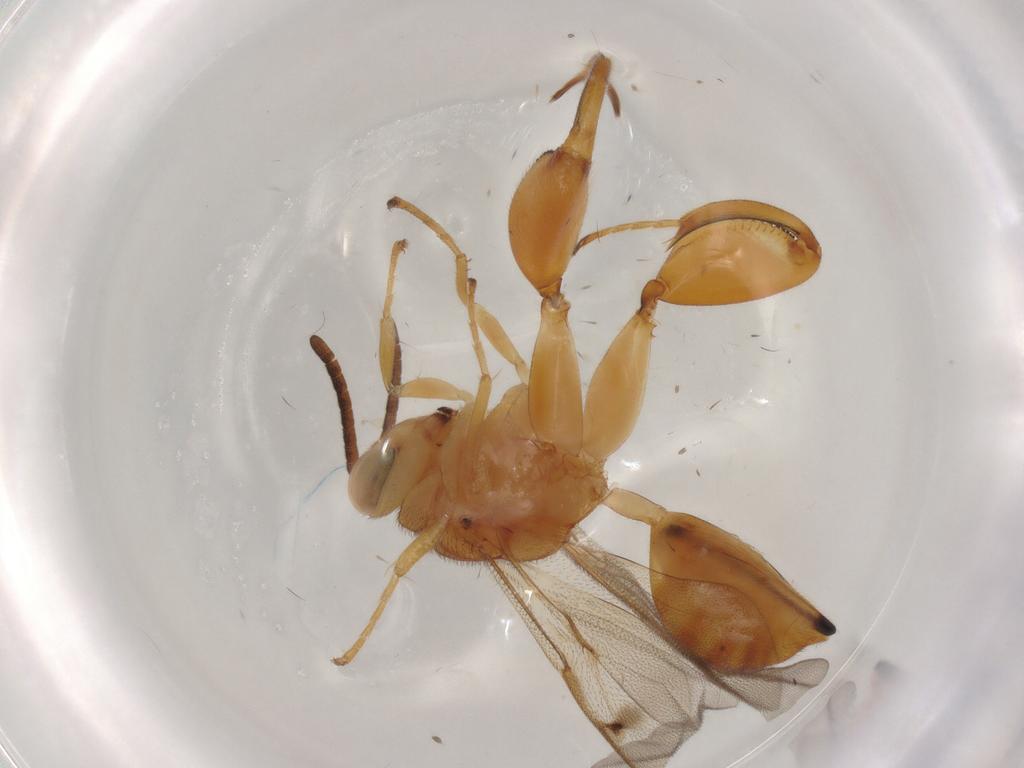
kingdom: Animalia
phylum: Arthropoda
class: Insecta
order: Hymenoptera
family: Chalcididae
